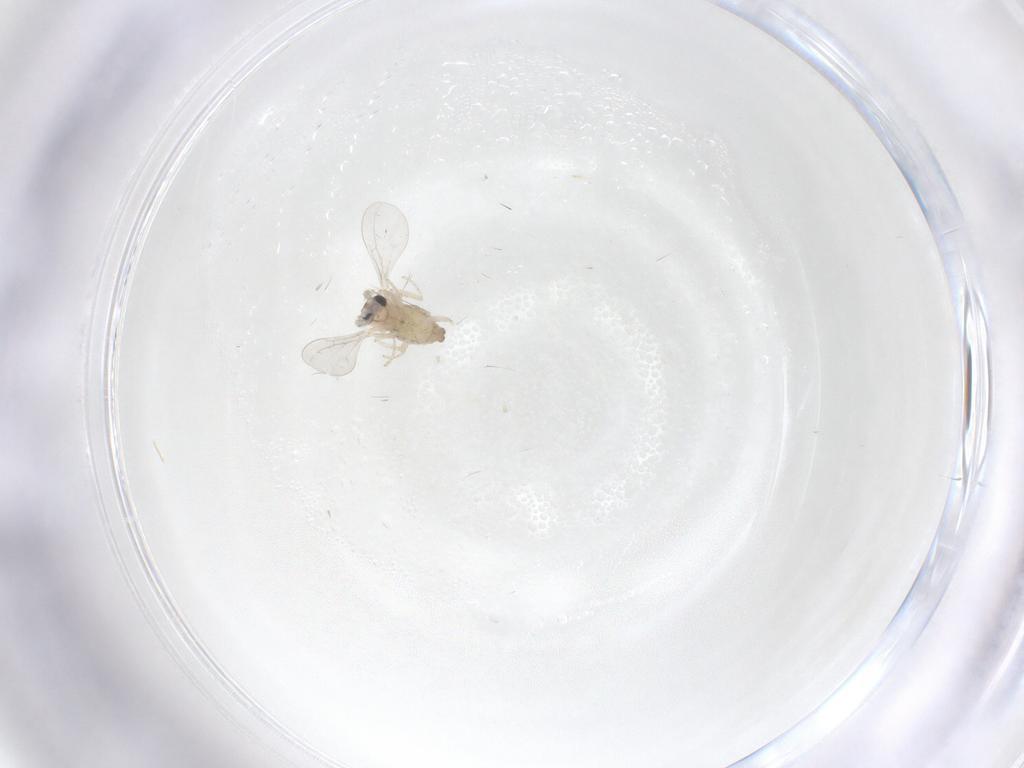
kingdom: Animalia
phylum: Arthropoda
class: Insecta
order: Diptera
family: Cecidomyiidae
